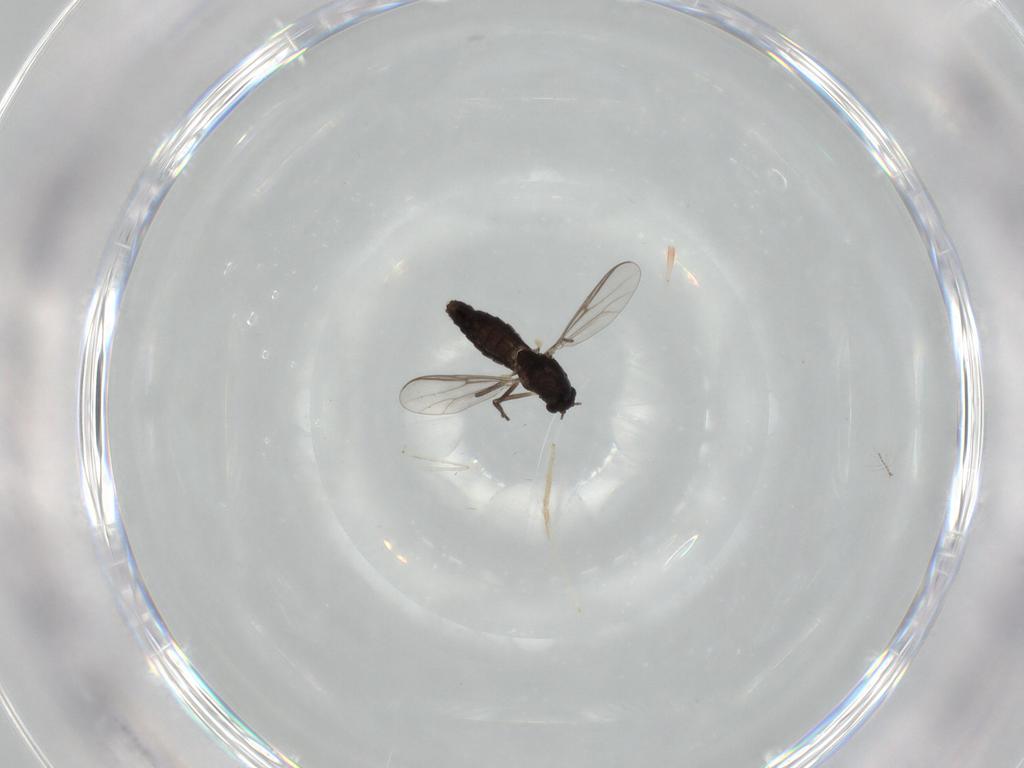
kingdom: Animalia
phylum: Arthropoda
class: Insecta
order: Diptera
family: Chironomidae
